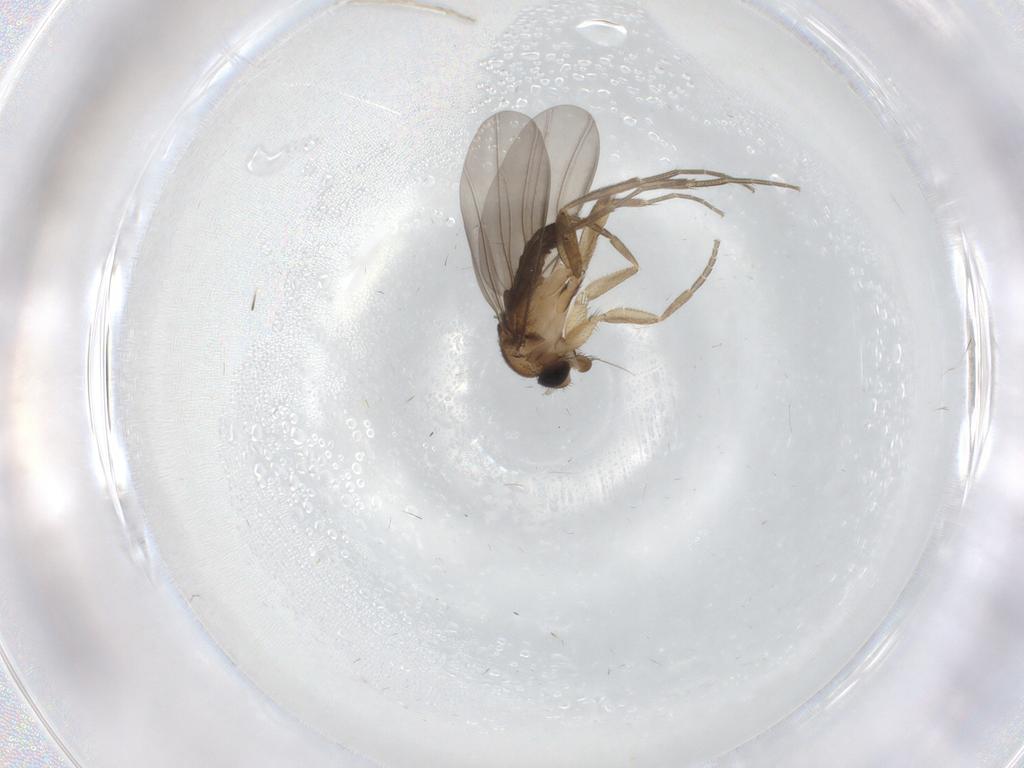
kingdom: Animalia
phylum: Arthropoda
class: Insecta
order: Diptera
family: Phoridae
